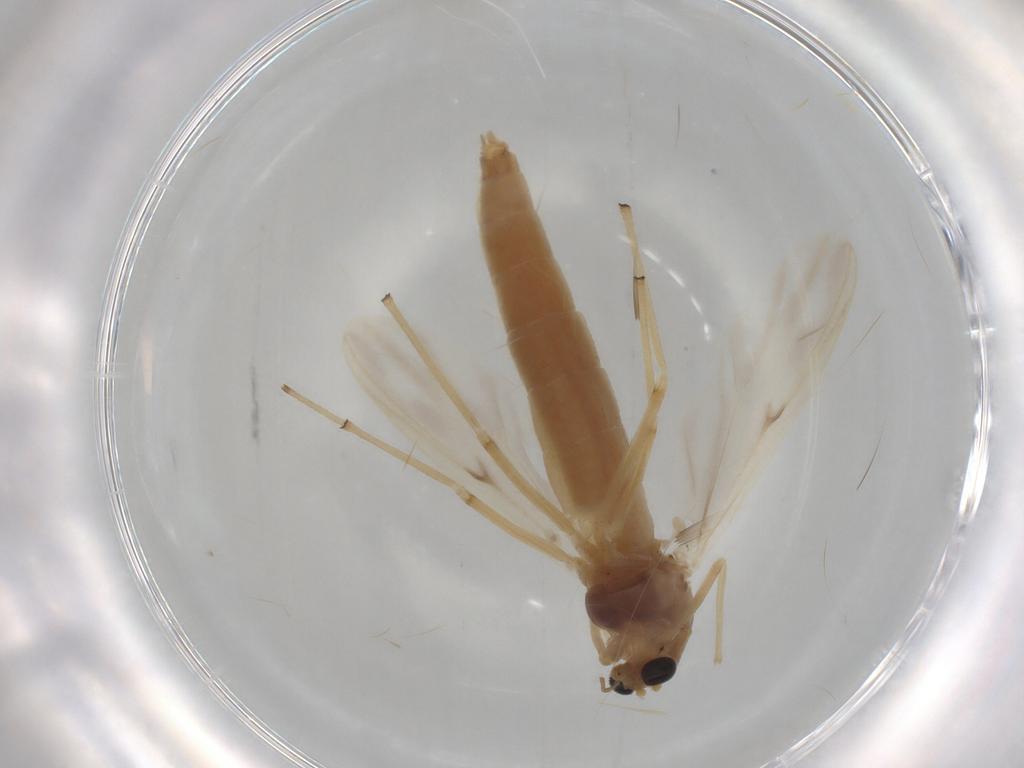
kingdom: Animalia
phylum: Arthropoda
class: Insecta
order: Diptera
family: Chironomidae
